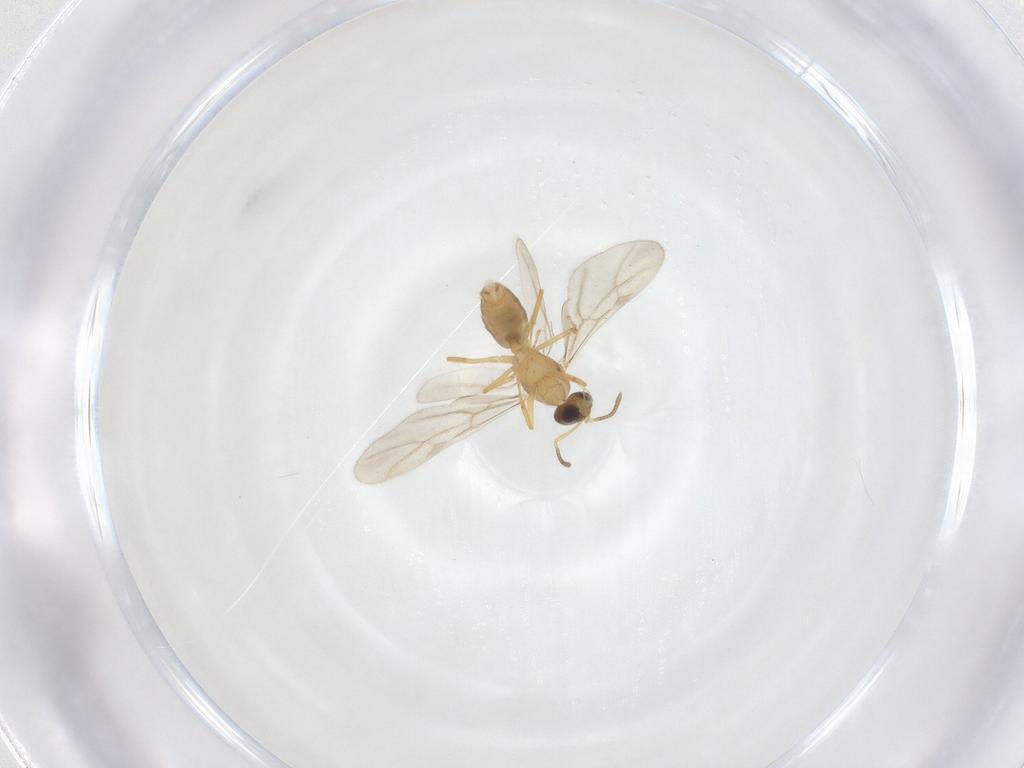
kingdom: Animalia
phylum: Arthropoda
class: Insecta
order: Hymenoptera
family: Formicidae
